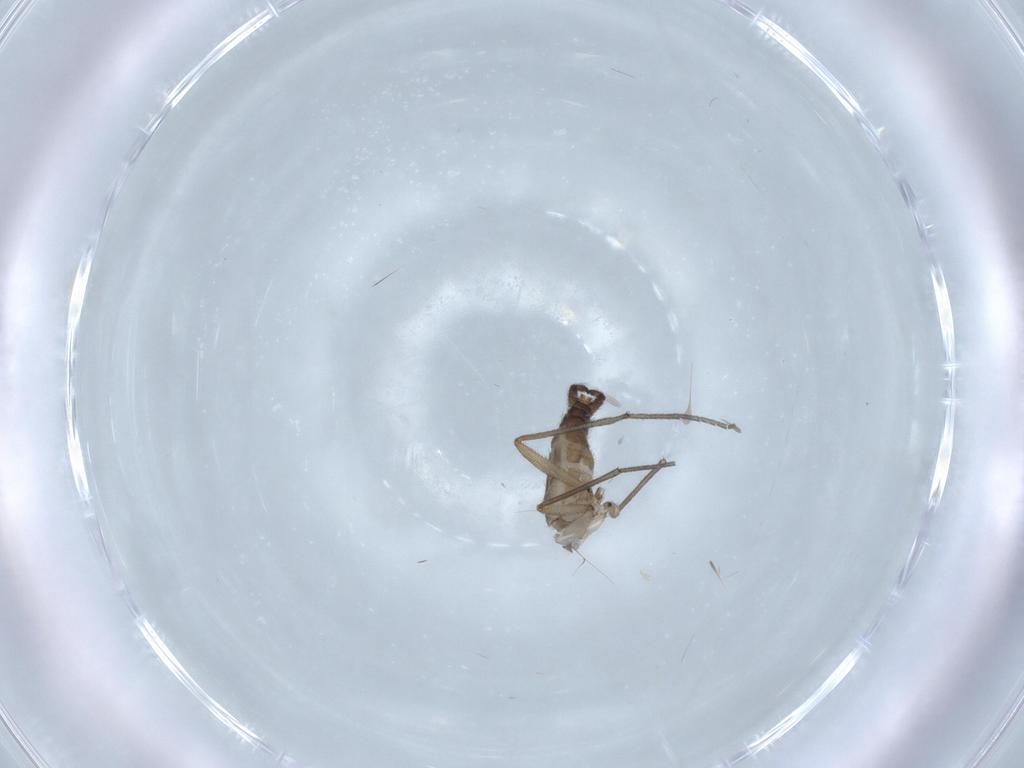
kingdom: Animalia
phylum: Arthropoda
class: Insecta
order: Diptera
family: Sciaridae
